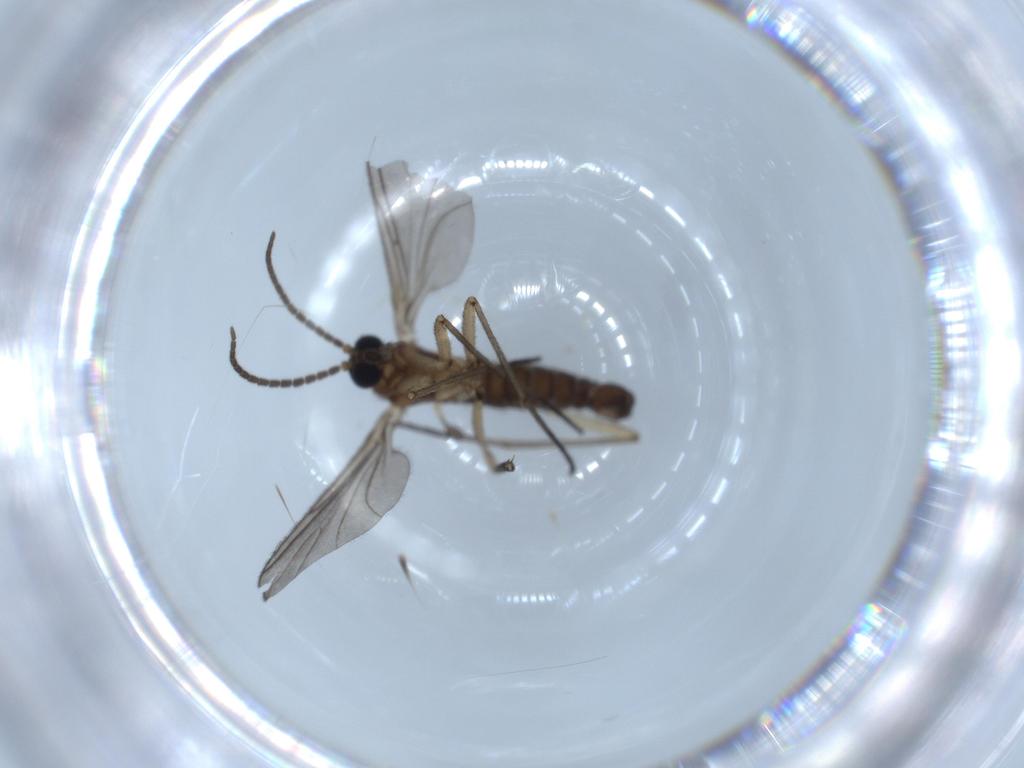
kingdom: Animalia
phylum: Arthropoda
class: Insecta
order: Diptera
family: Sciaridae
